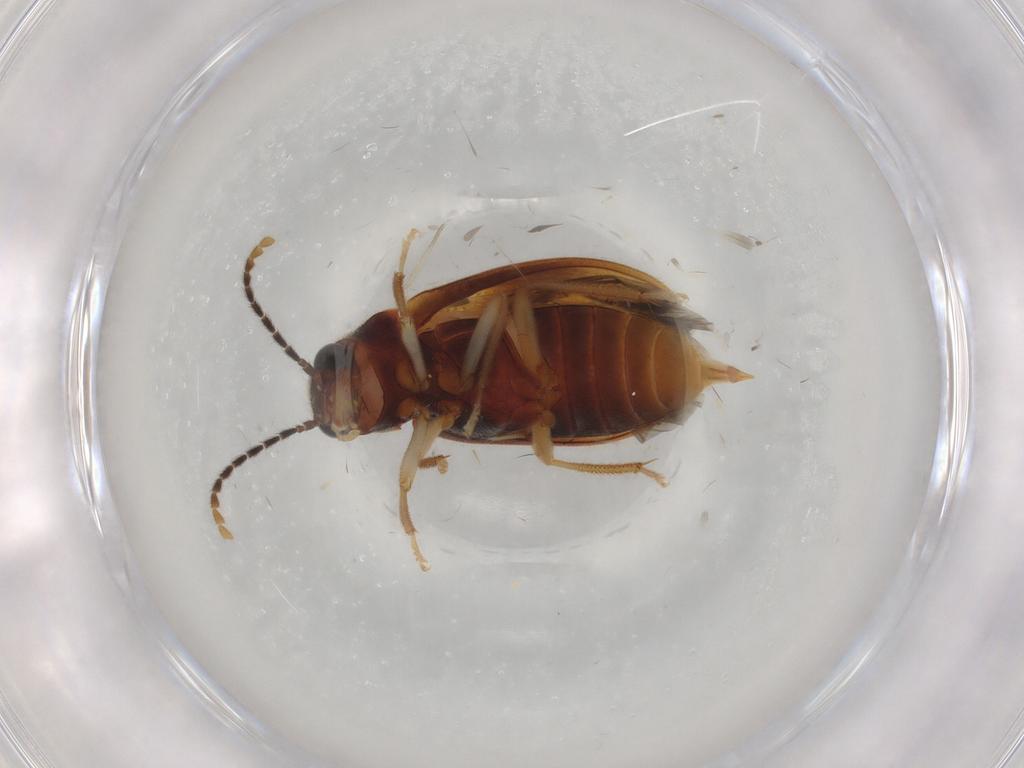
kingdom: Animalia
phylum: Arthropoda
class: Insecta
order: Coleoptera
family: Ptilodactylidae
